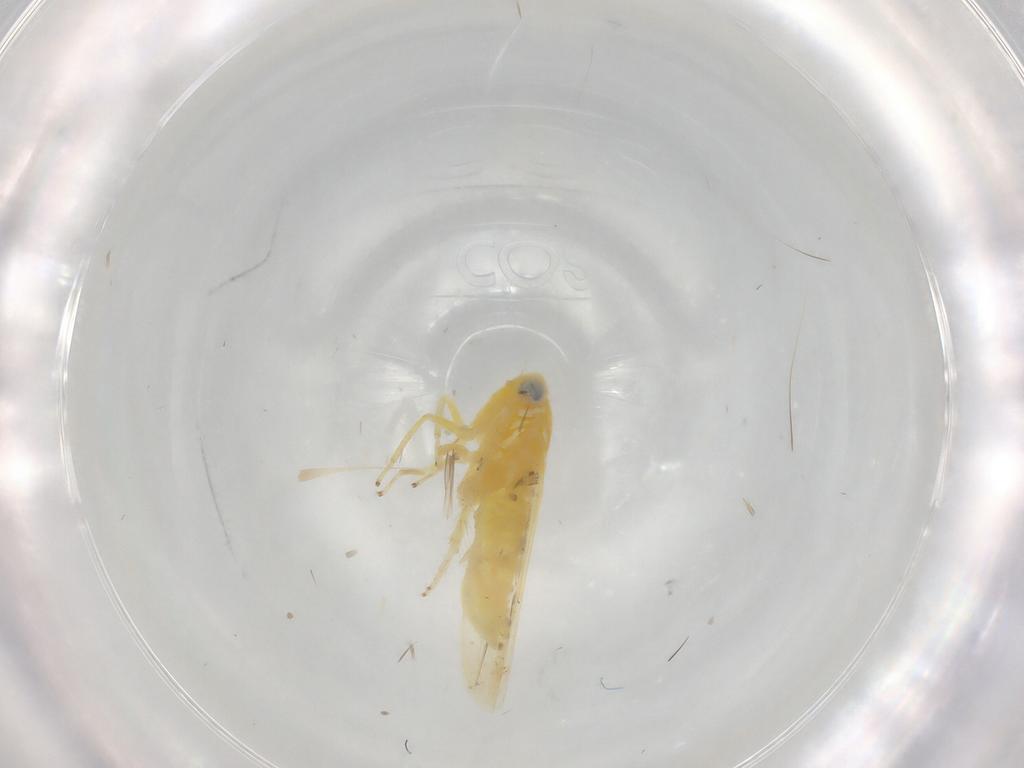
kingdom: Animalia
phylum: Arthropoda
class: Insecta
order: Hemiptera
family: Cicadellidae
